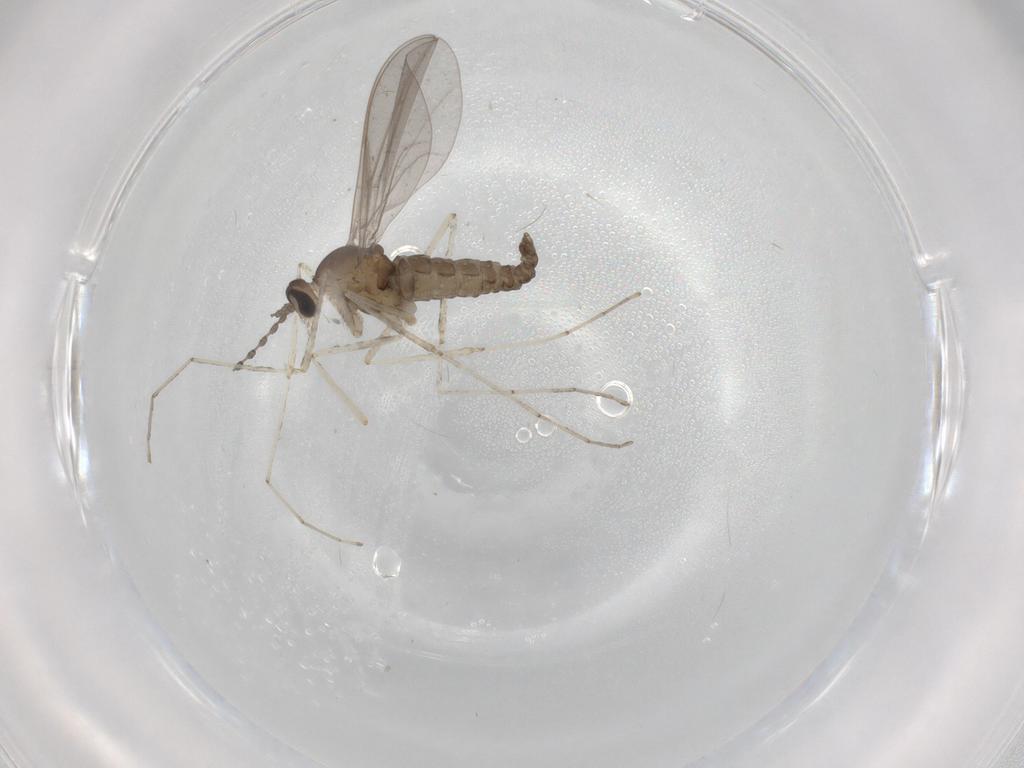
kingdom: Animalia
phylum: Arthropoda
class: Insecta
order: Diptera
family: Cecidomyiidae
